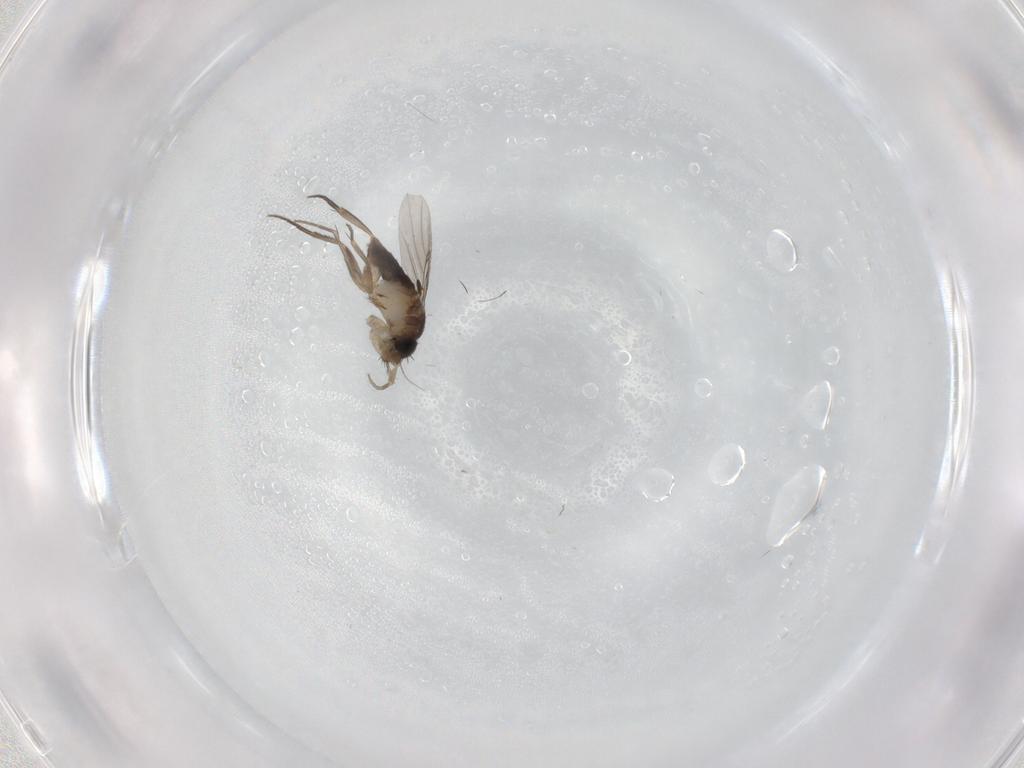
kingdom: Animalia
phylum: Arthropoda
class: Insecta
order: Diptera
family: Phoridae
